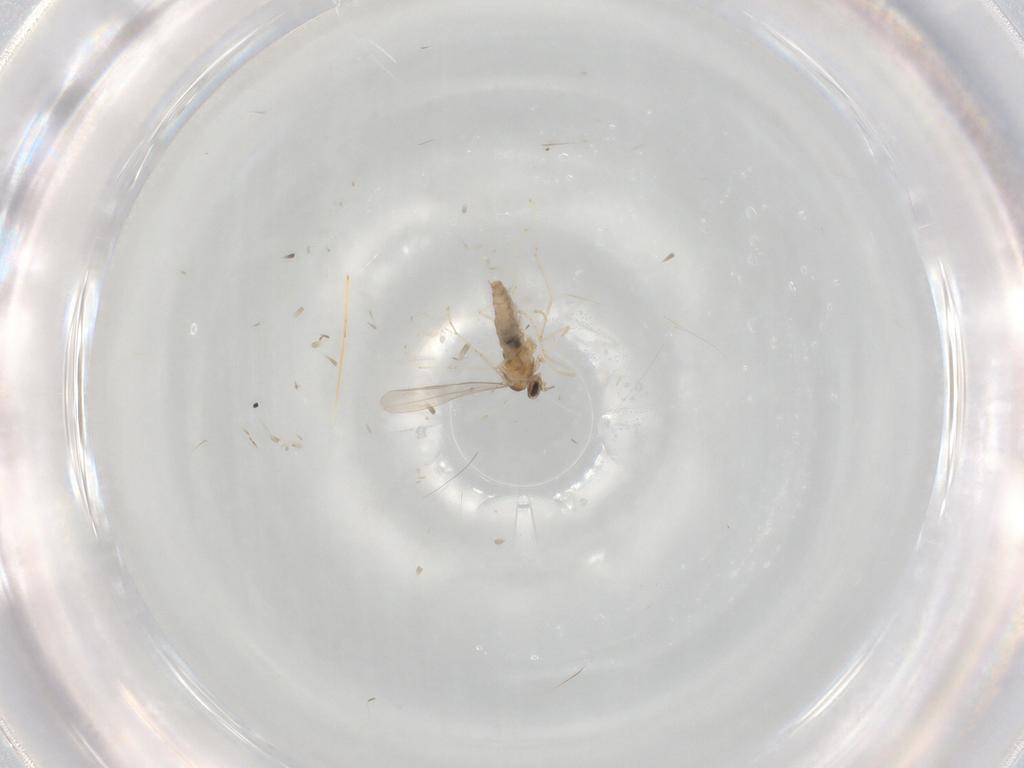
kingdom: Animalia
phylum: Arthropoda
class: Insecta
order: Diptera
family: Cecidomyiidae
